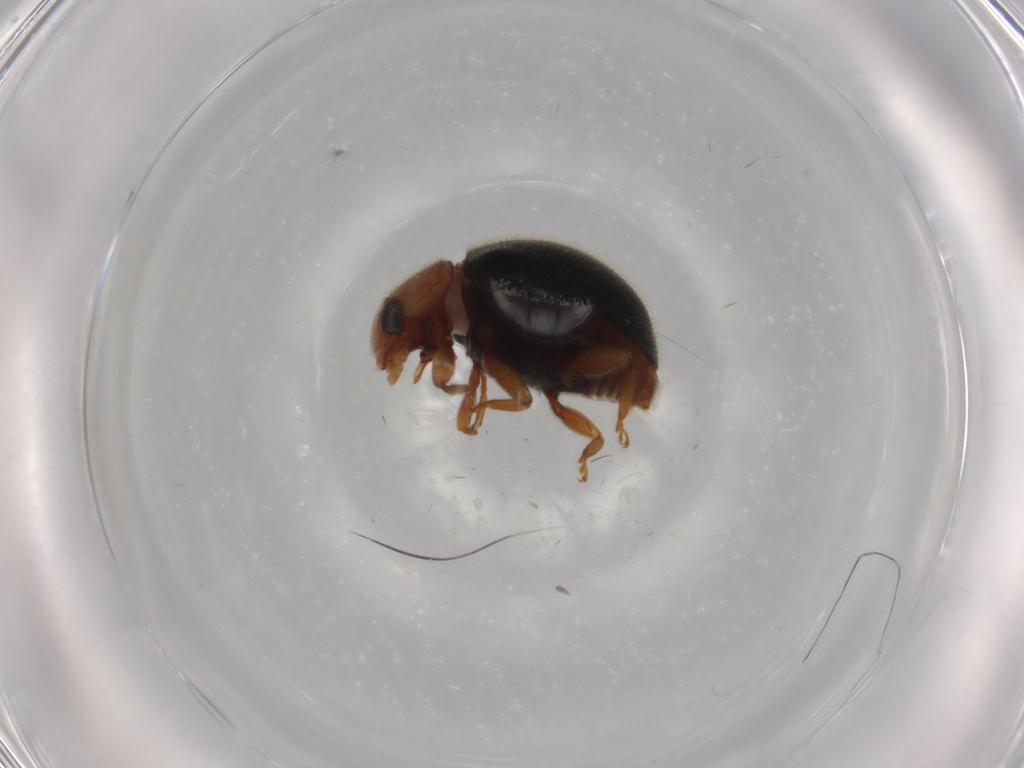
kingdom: Animalia
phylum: Arthropoda
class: Insecta
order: Coleoptera
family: Coccinellidae
